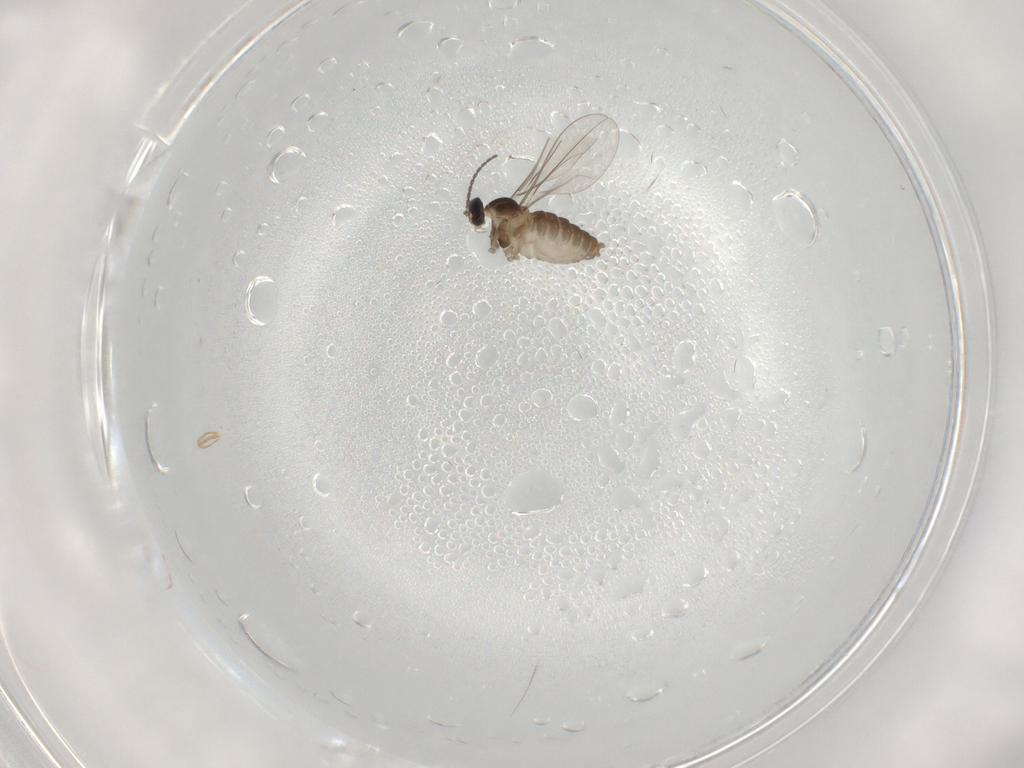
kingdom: Animalia
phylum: Arthropoda
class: Insecta
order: Diptera
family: Cecidomyiidae
